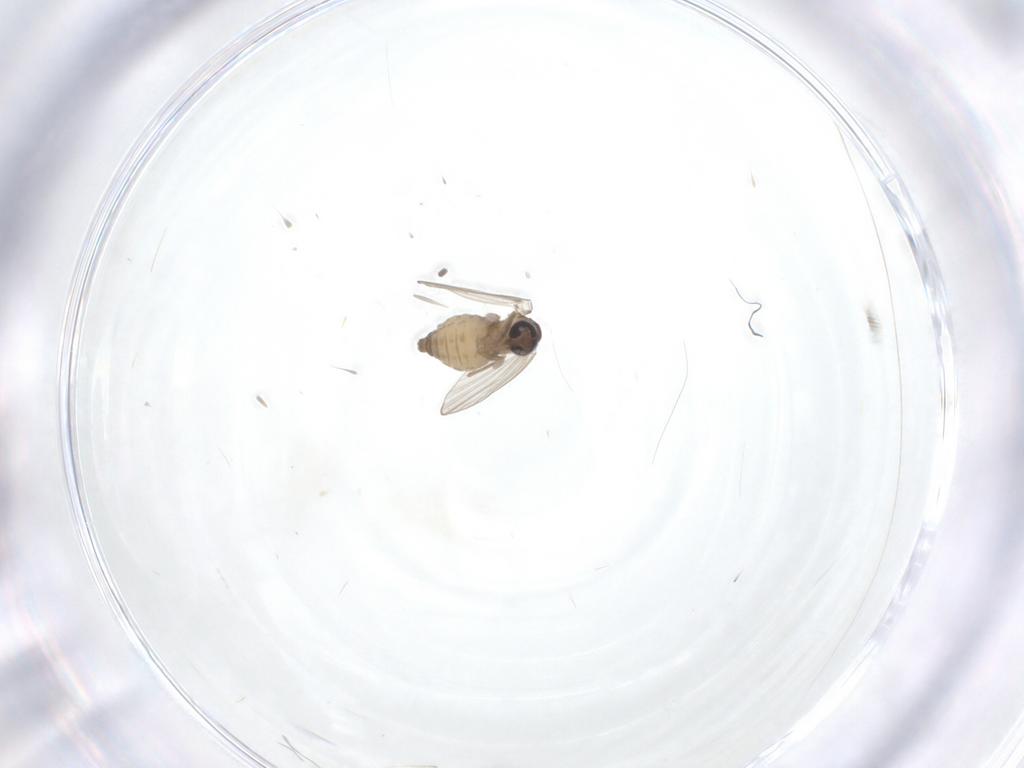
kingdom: Animalia
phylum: Arthropoda
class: Insecta
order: Diptera
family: Psychodidae
